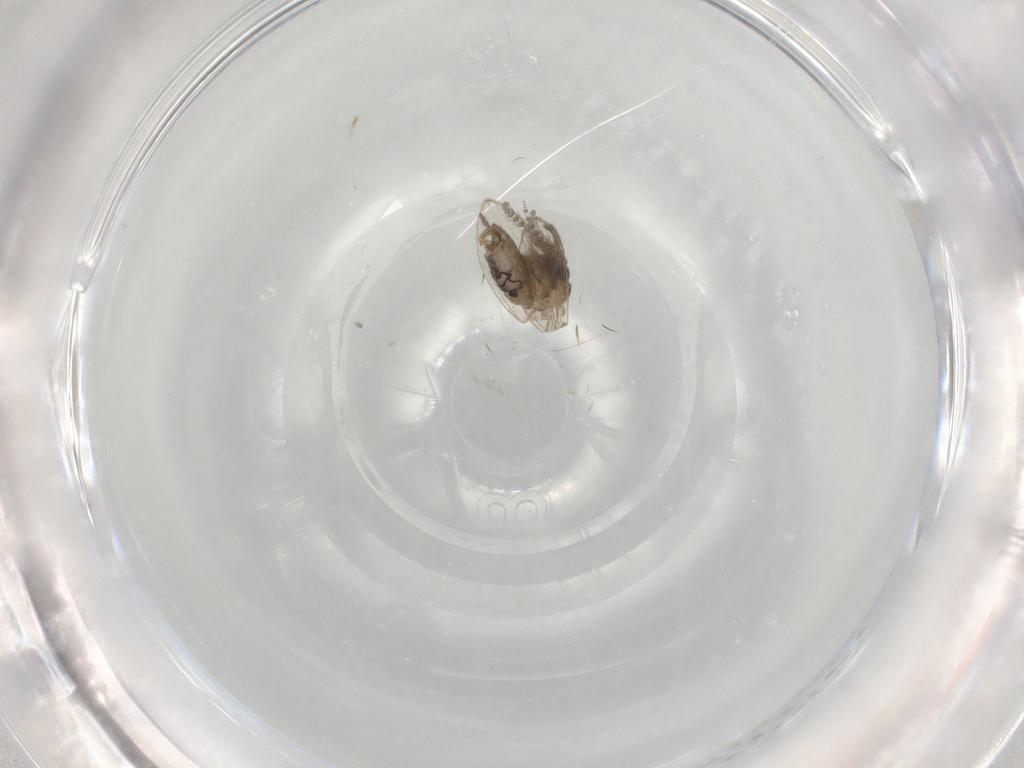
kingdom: Animalia
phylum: Arthropoda
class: Insecta
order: Diptera
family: Psychodidae
